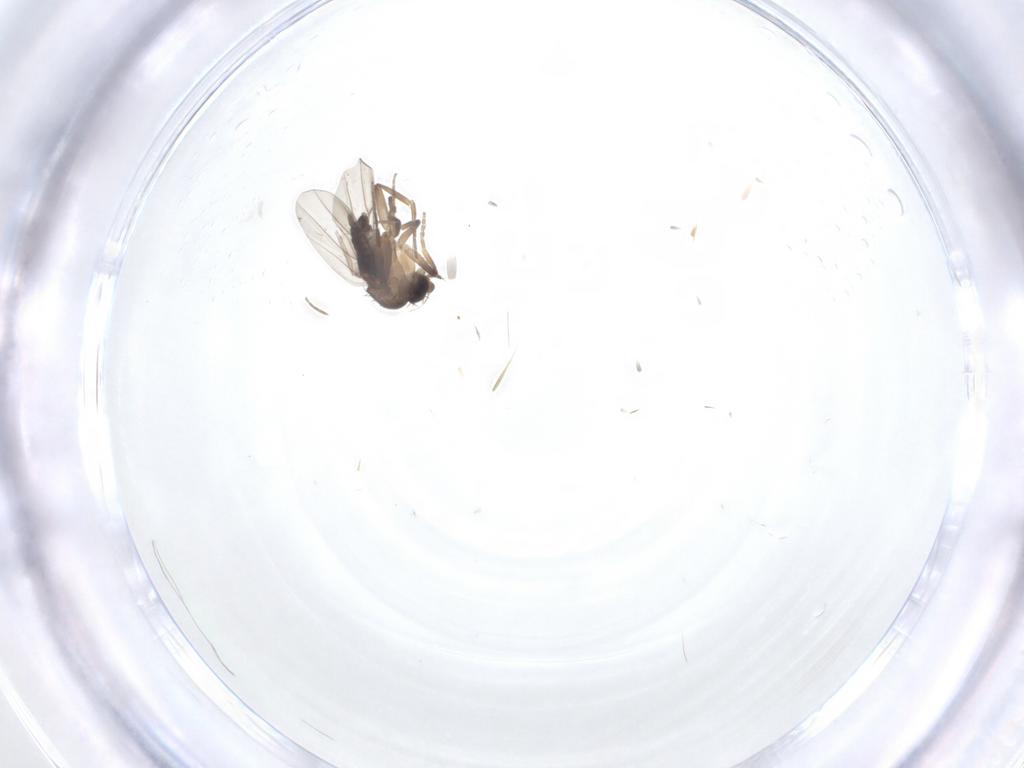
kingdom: Animalia
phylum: Arthropoda
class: Insecta
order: Diptera
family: Phoridae
